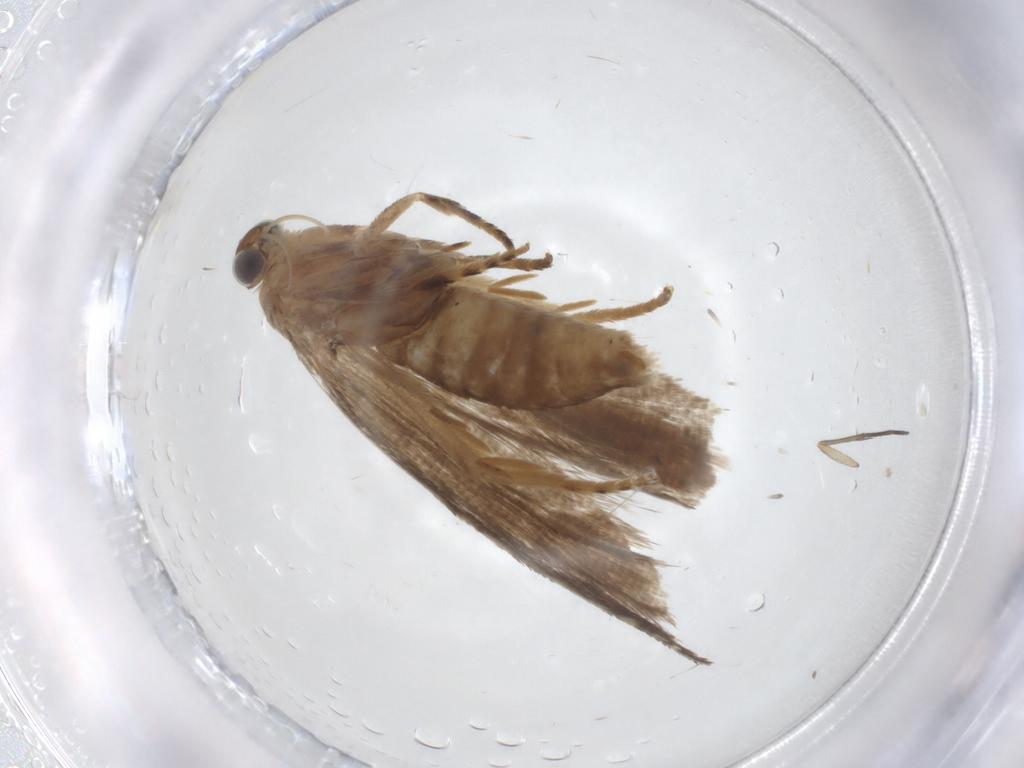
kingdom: Animalia
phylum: Arthropoda
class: Insecta
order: Lepidoptera
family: Tortricidae
